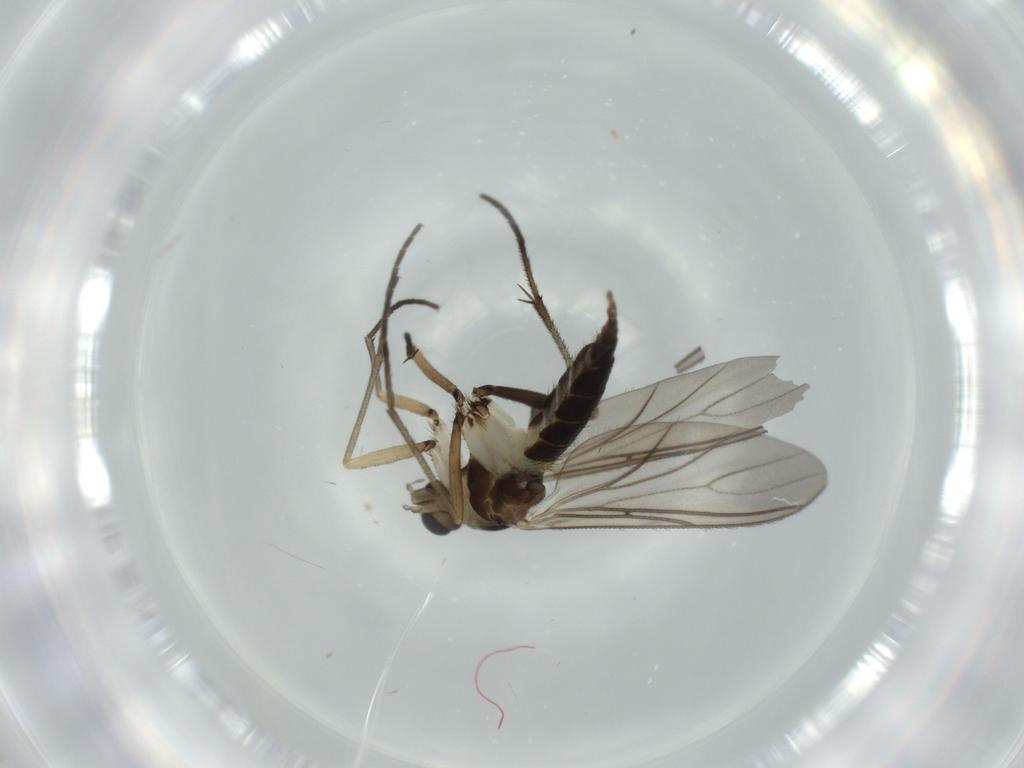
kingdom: Animalia
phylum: Arthropoda
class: Insecta
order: Diptera
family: Sciaridae
